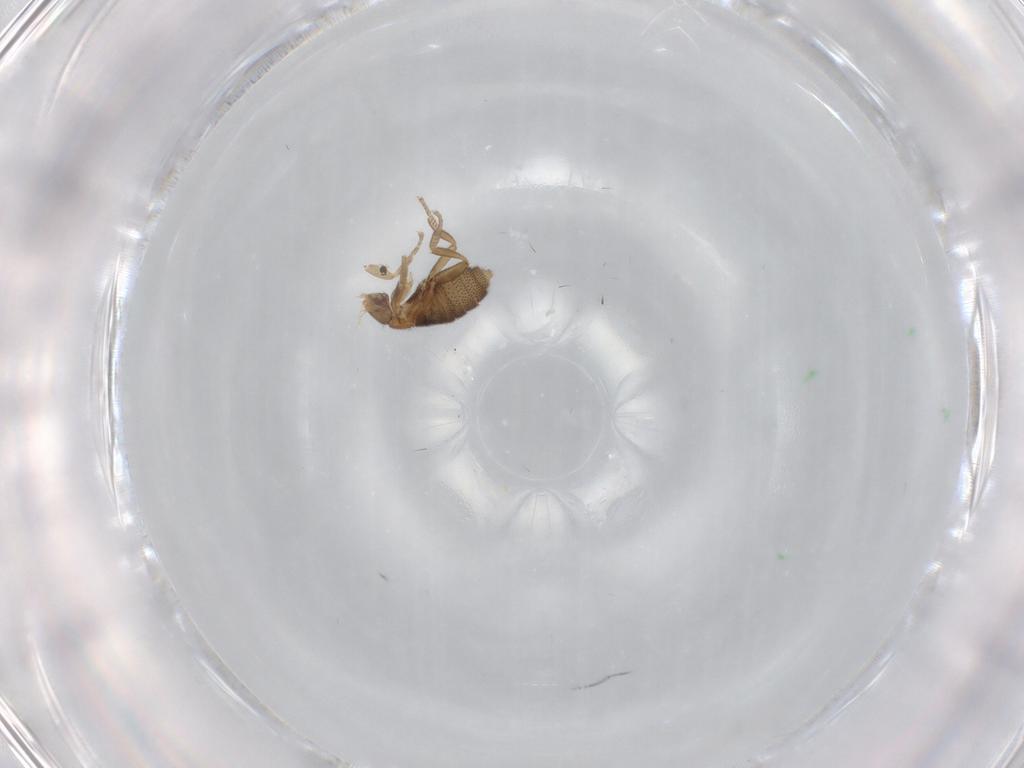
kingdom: Animalia
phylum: Arthropoda
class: Insecta
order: Diptera
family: Phoridae
